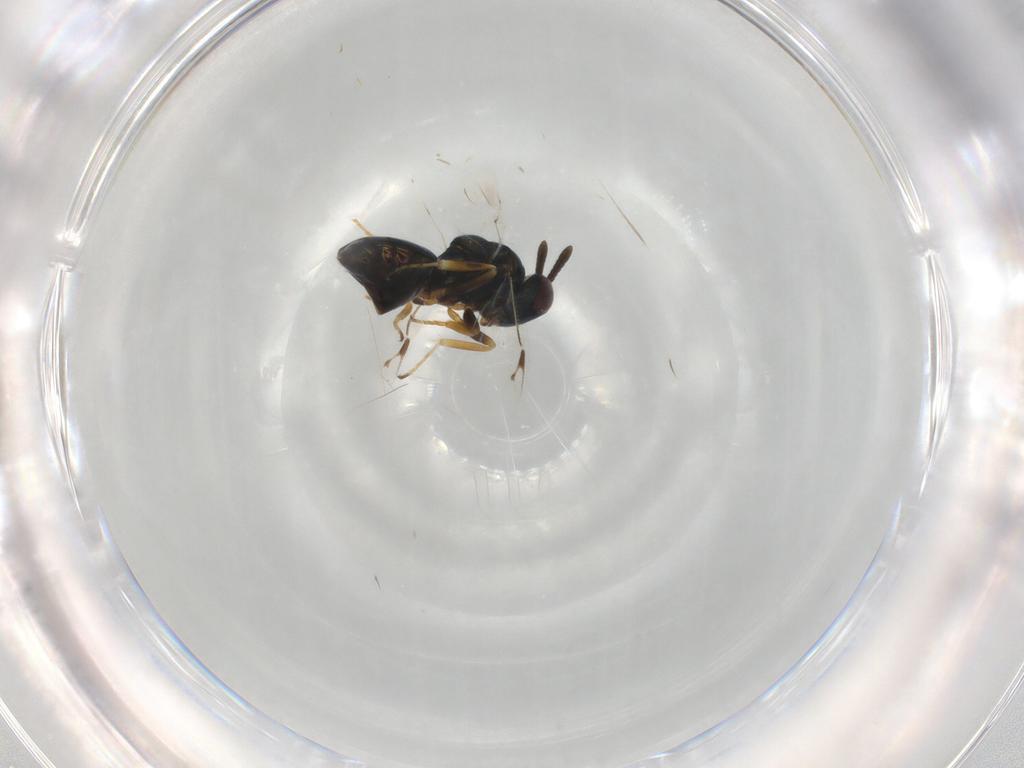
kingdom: Animalia
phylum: Arthropoda
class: Insecta
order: Hymenoptera
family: Pteromalidae
